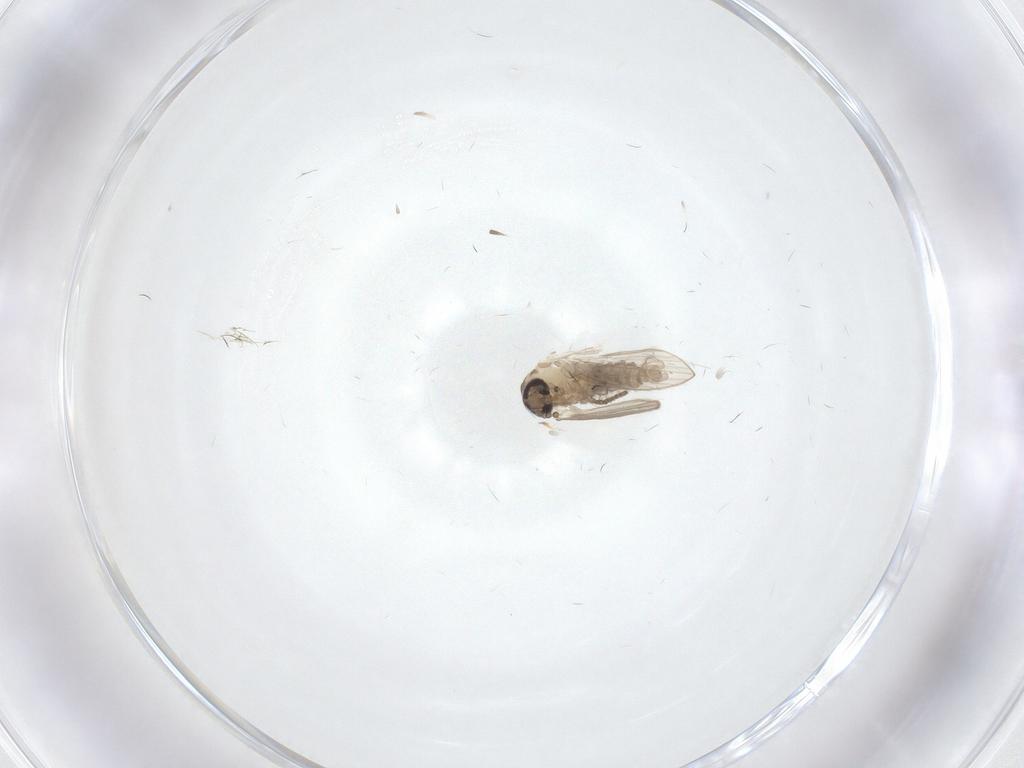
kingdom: Animalia
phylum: Arthropoda
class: Insecta
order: Diptera
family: Psychodidae
